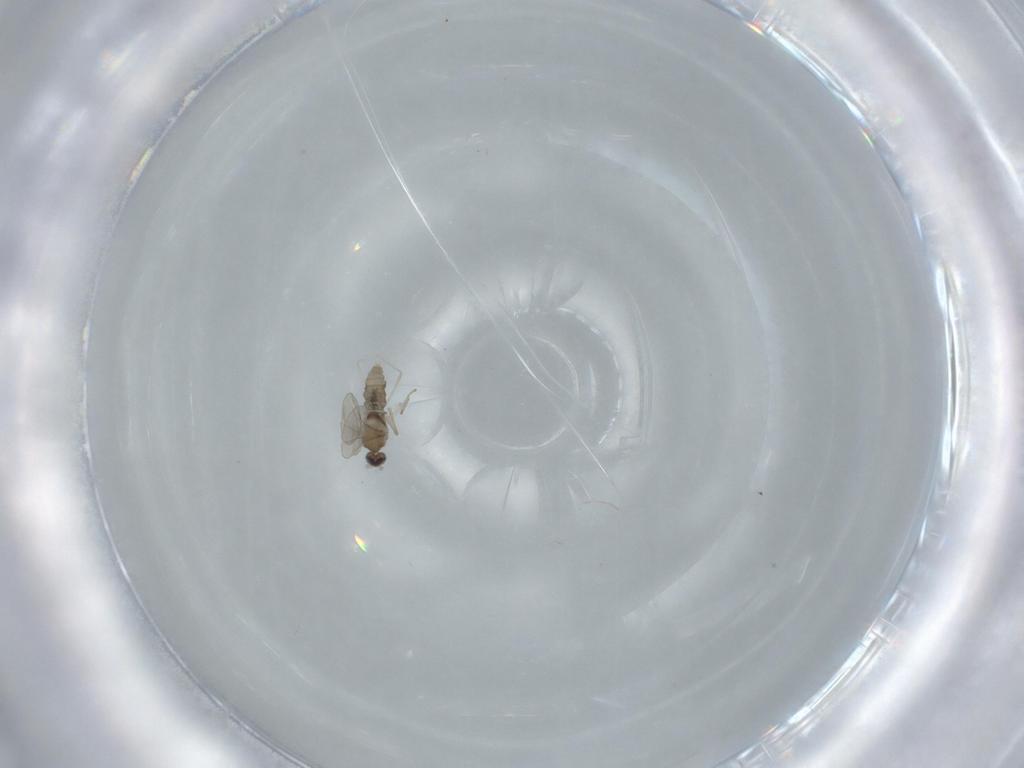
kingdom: Animalia
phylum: Arthropoda
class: Insecta
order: Diptera
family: Cecidomyiidae
